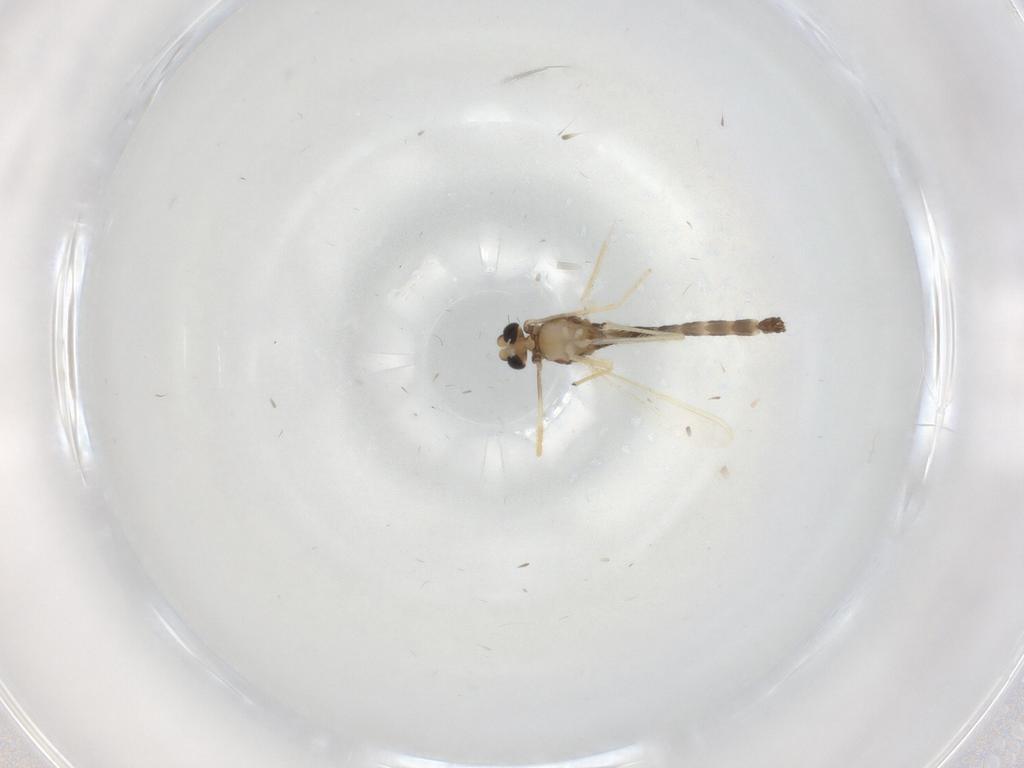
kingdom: Animalia
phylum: Arthropoda
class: Insecta
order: Diptera
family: Chironomidae
